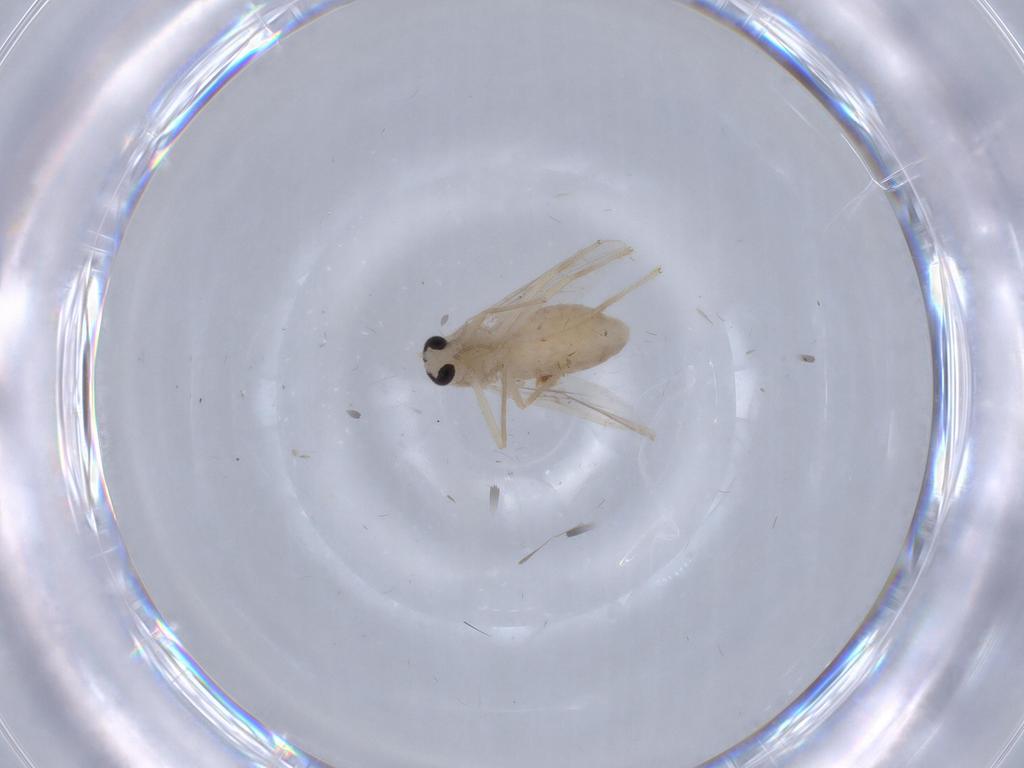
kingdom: Animalia
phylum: Arthropoda
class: Insecta
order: Diptera
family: Chironomidae
